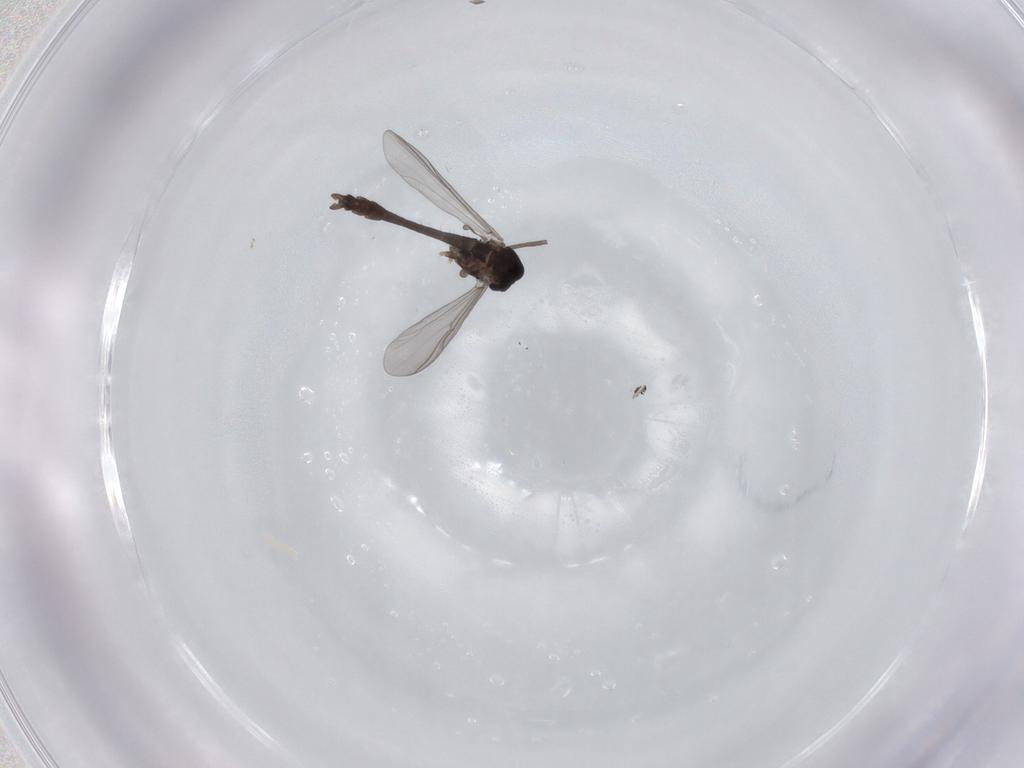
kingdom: Animalia
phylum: Arthropoda
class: Insecta
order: Diptera
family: Chironomidae
